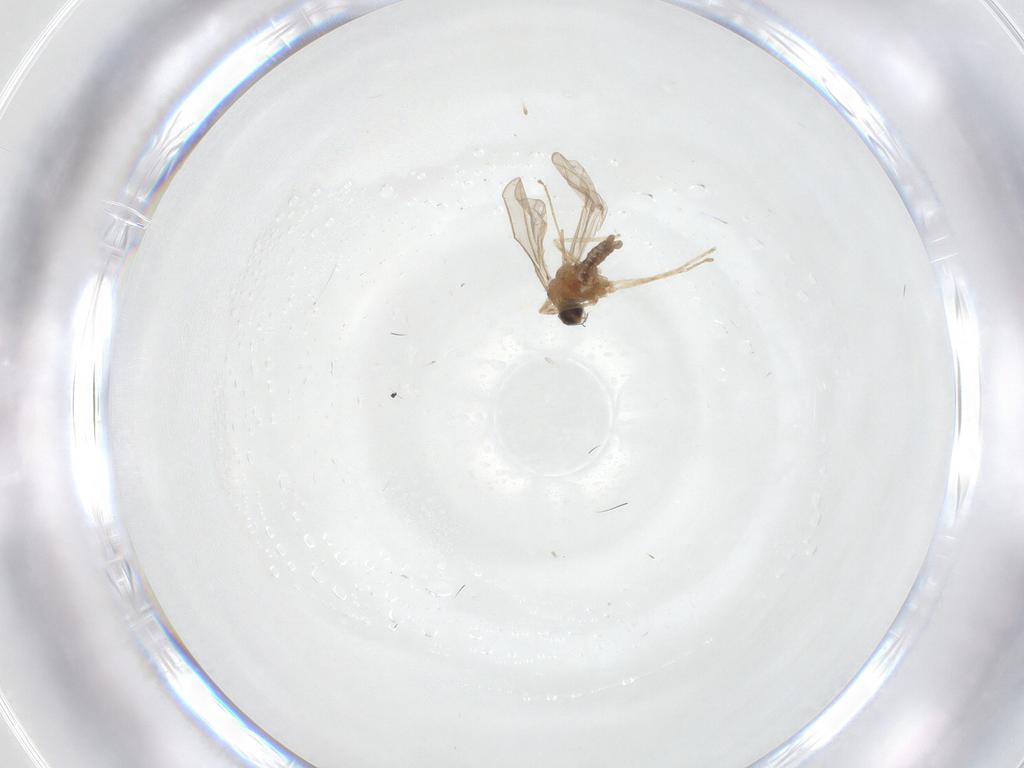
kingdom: Animalia
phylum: Arthropoda
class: Insecta
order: Diptera
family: Cecidomyiidae
